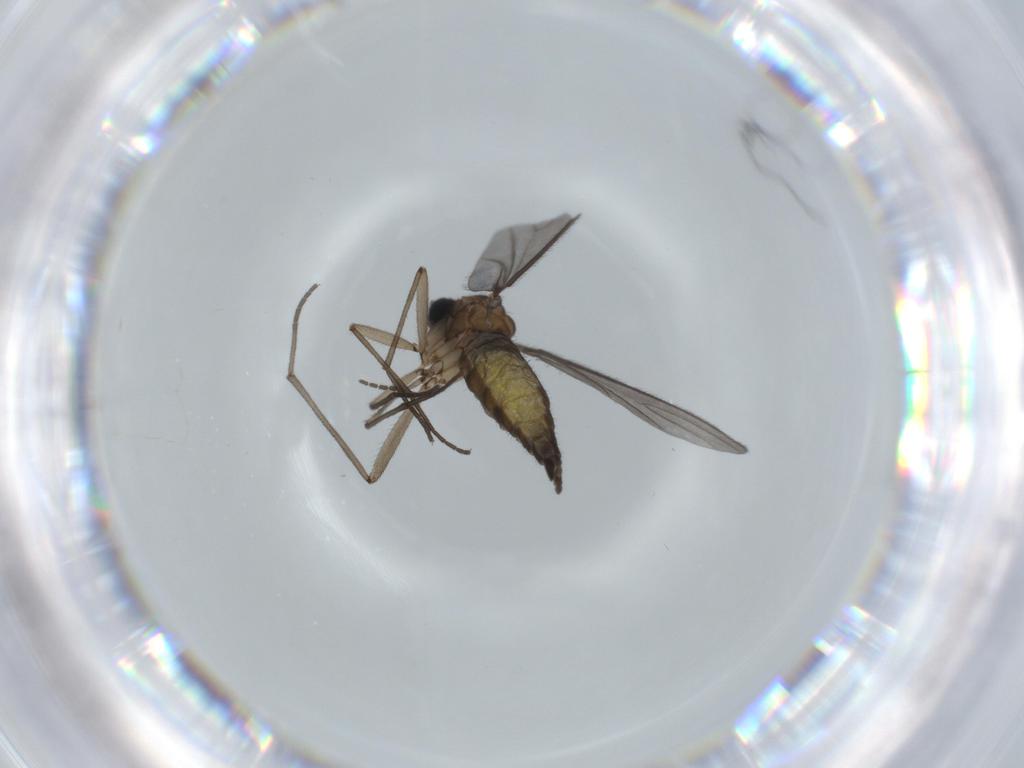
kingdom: Animalia
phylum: Arthropoda
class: Insecta
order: Diptera
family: Sciaridae
